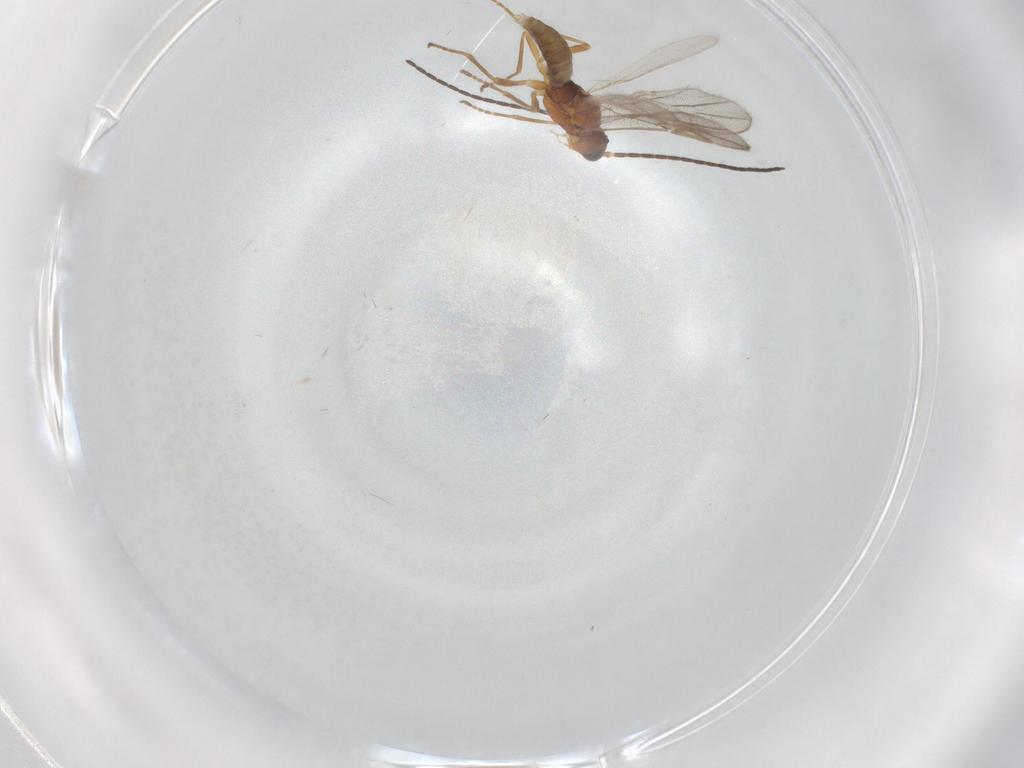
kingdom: Animalia
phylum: Arthropoda
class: Insecta
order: Hymenoptera
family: Braconidae
